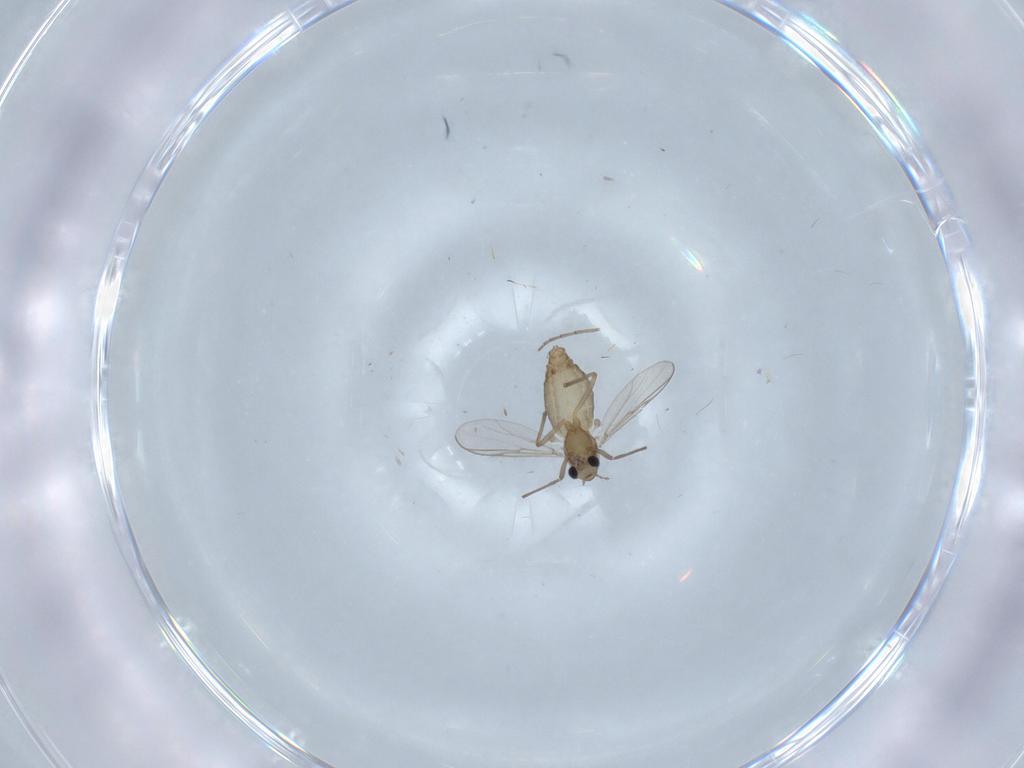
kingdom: Animalia
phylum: Arthropoda
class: Insecta
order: Diptera
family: Chironomidae
